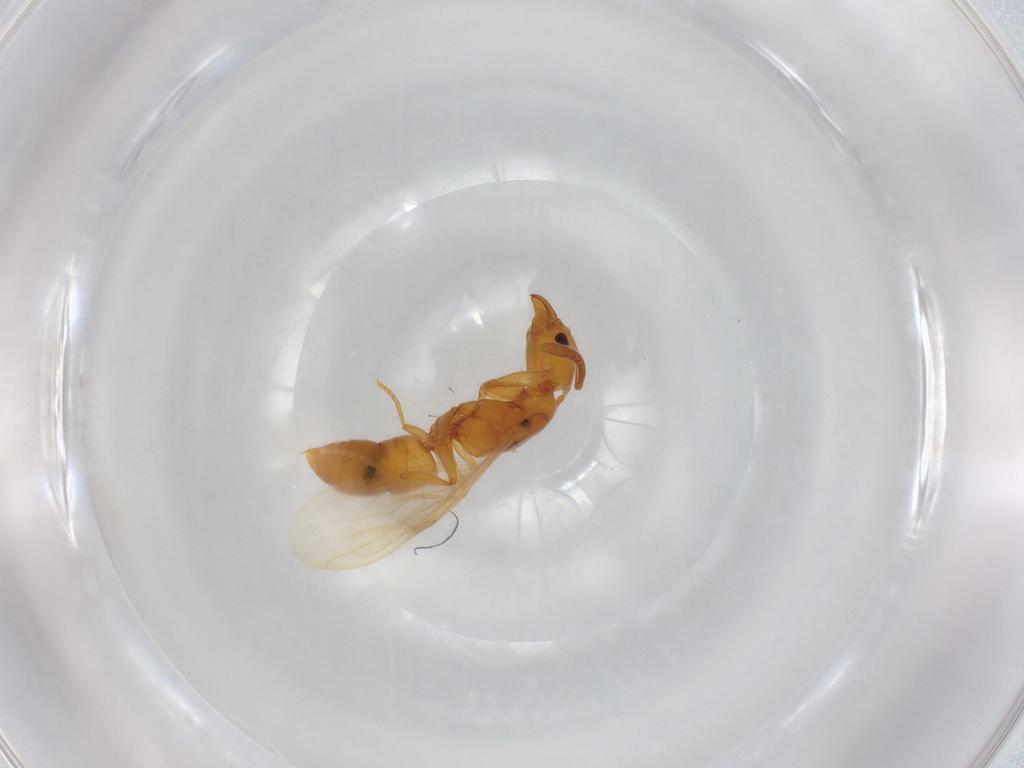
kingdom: Animalia
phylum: Arthropoda
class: Insecta
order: Hymenoptera
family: Formicidae
